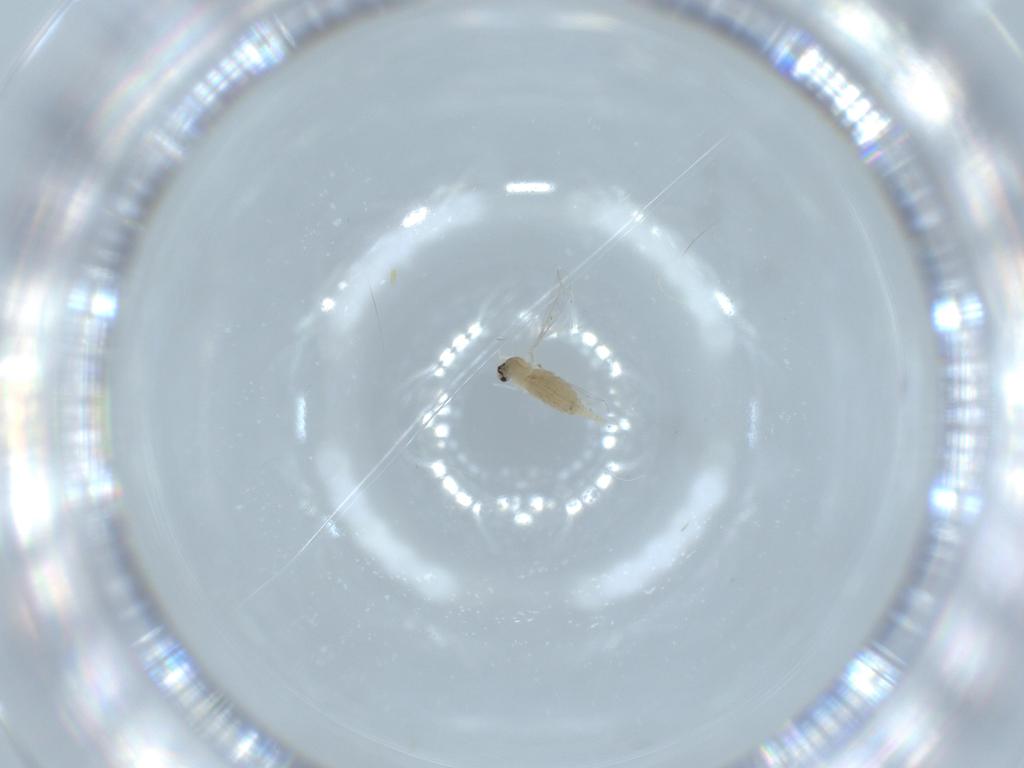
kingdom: Animalia
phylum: Arthropoda
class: Insecta
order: Diptera
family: Cecidomyiidae
